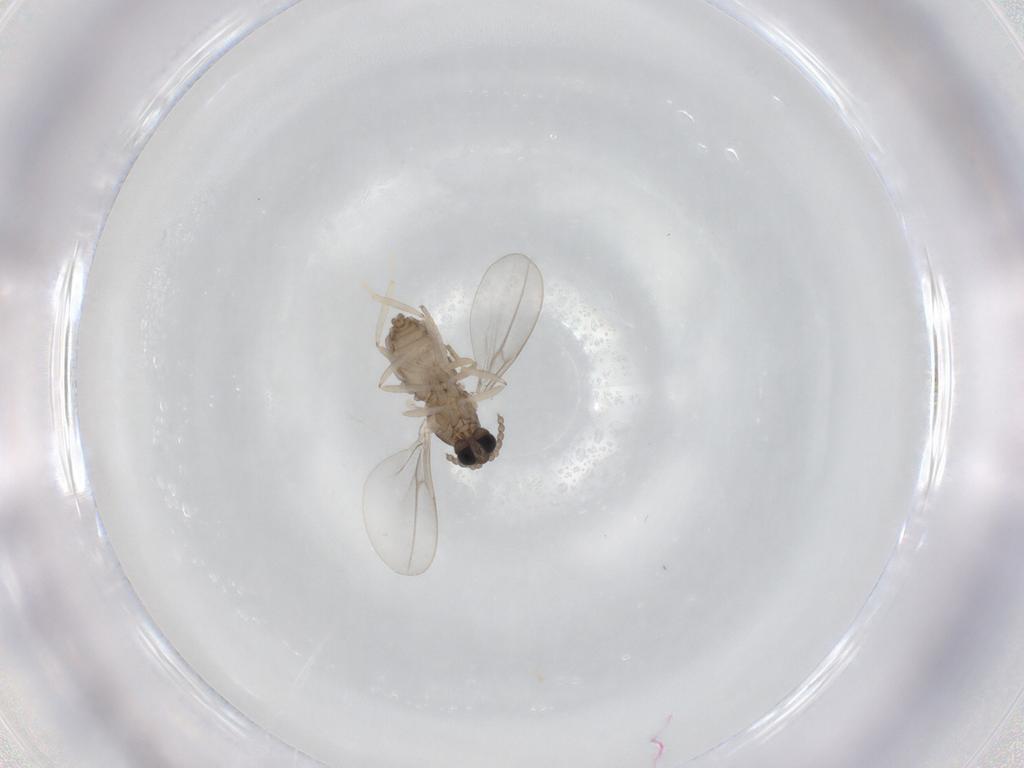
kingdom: Animalia
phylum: Arthropoda
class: Insecta
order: Diptera
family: Cecidomyiidae
